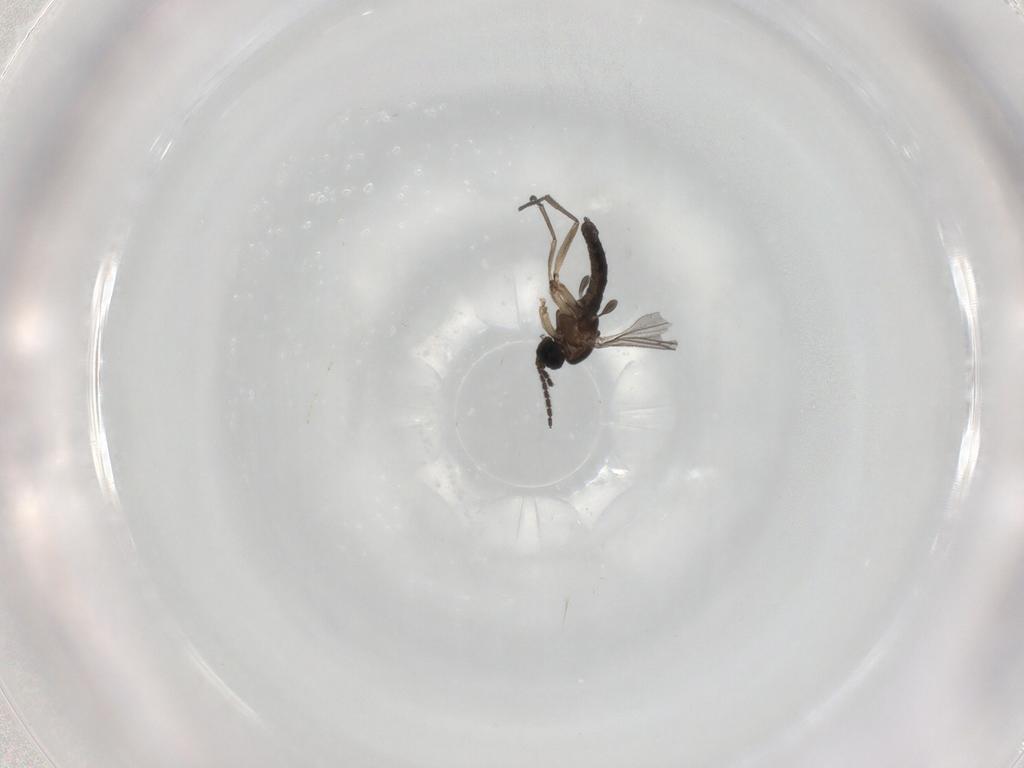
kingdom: Animalia
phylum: Arthropoda
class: Insecta
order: Diptera
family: Sciaridae
